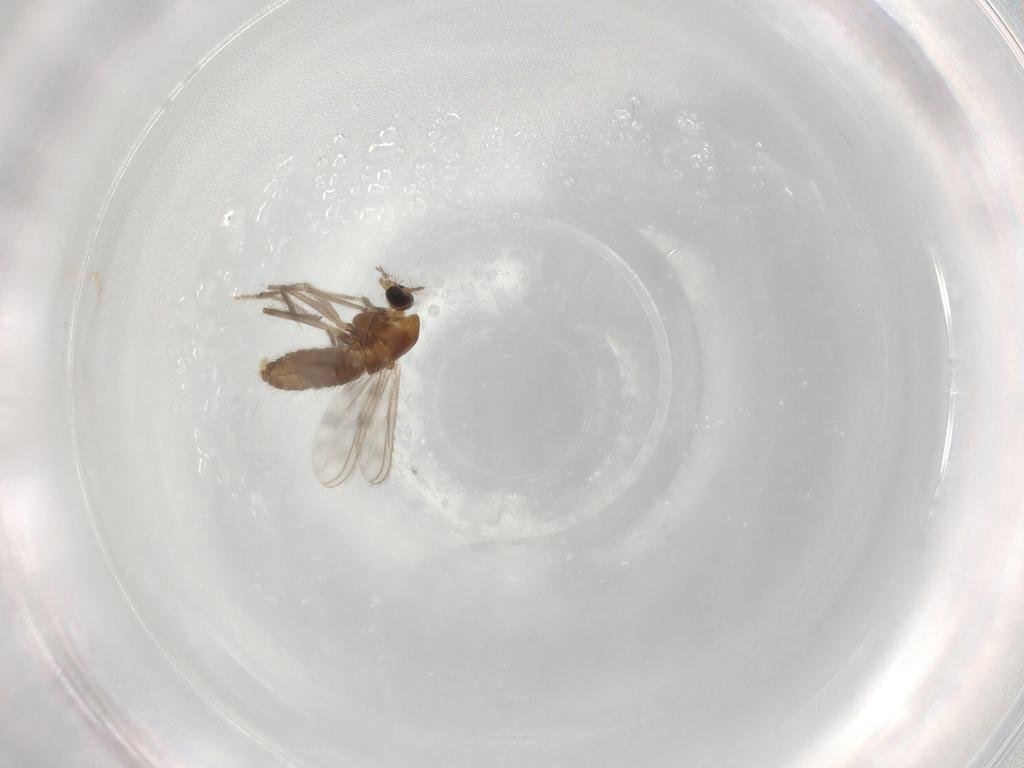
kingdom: Animalia
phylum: Arthropoda
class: Insecta
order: Diptera
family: Chironomidae
